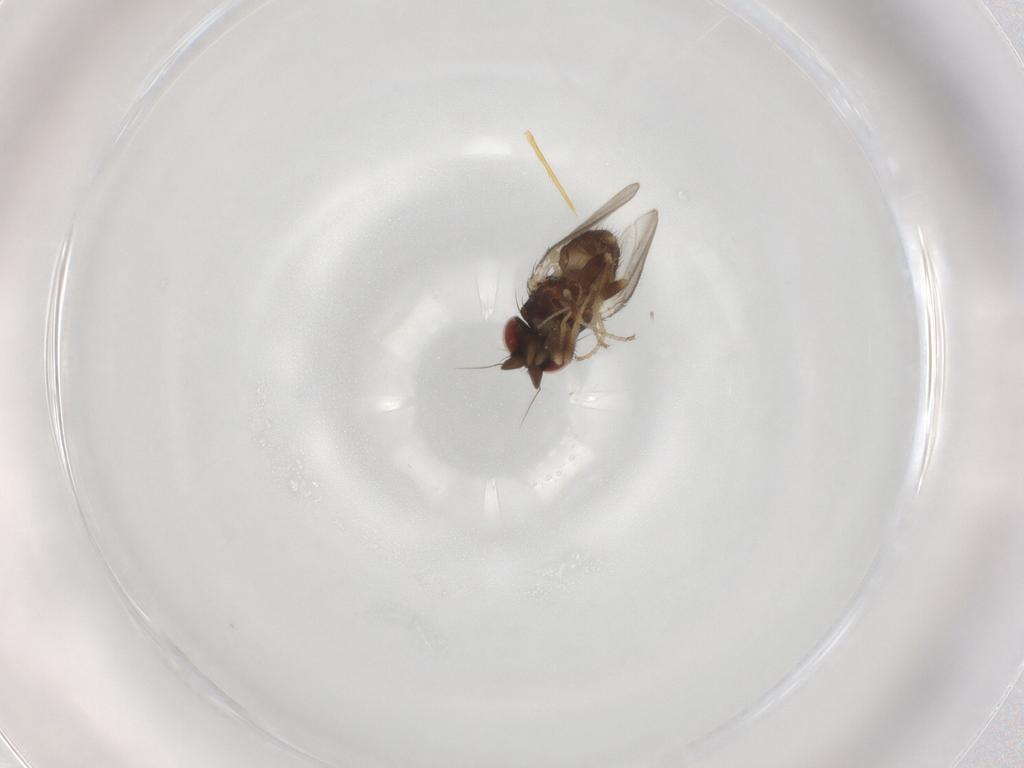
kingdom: Animalia
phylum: Arthropoda
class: Insecta
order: Diptera
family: Milichiidae
